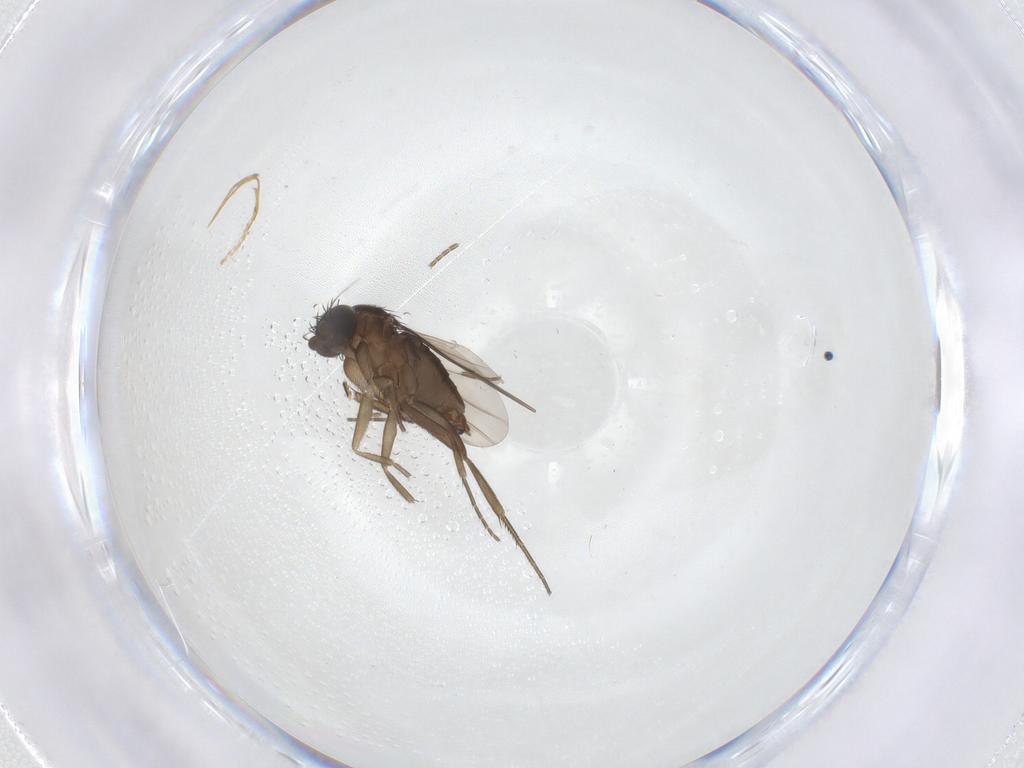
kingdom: Animalia
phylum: Arthropoda
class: Insecta
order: Diptera
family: Phoridae
